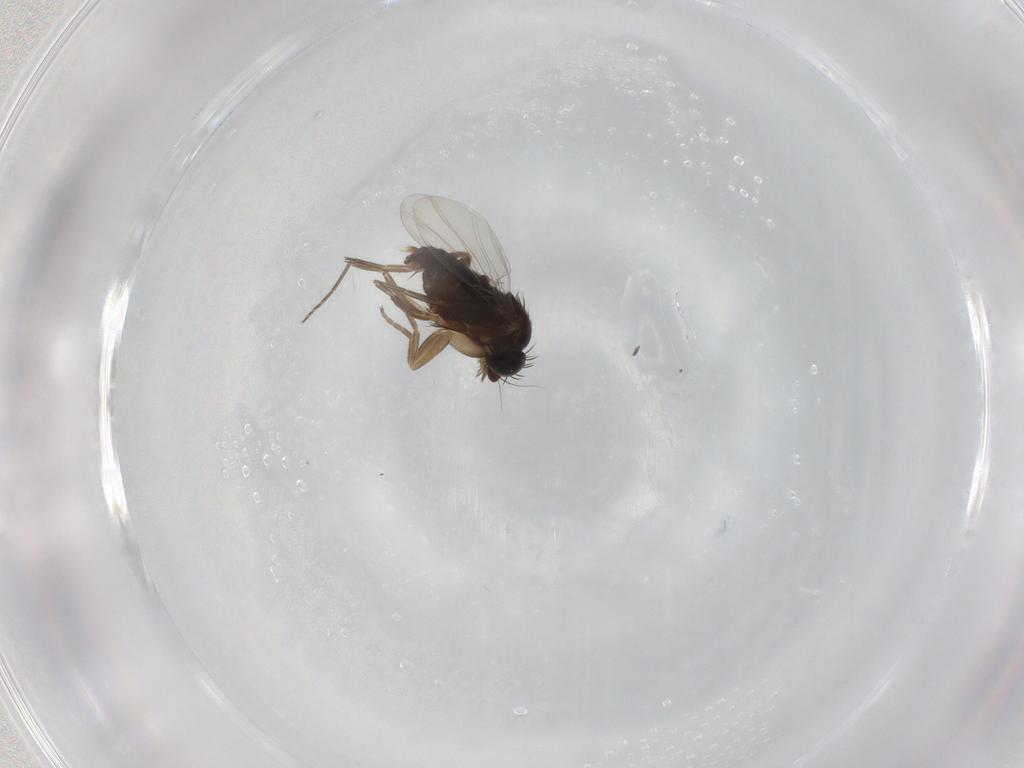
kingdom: Animalia
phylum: Arthropoda
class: Insecta
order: Diptera
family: Phoridae
